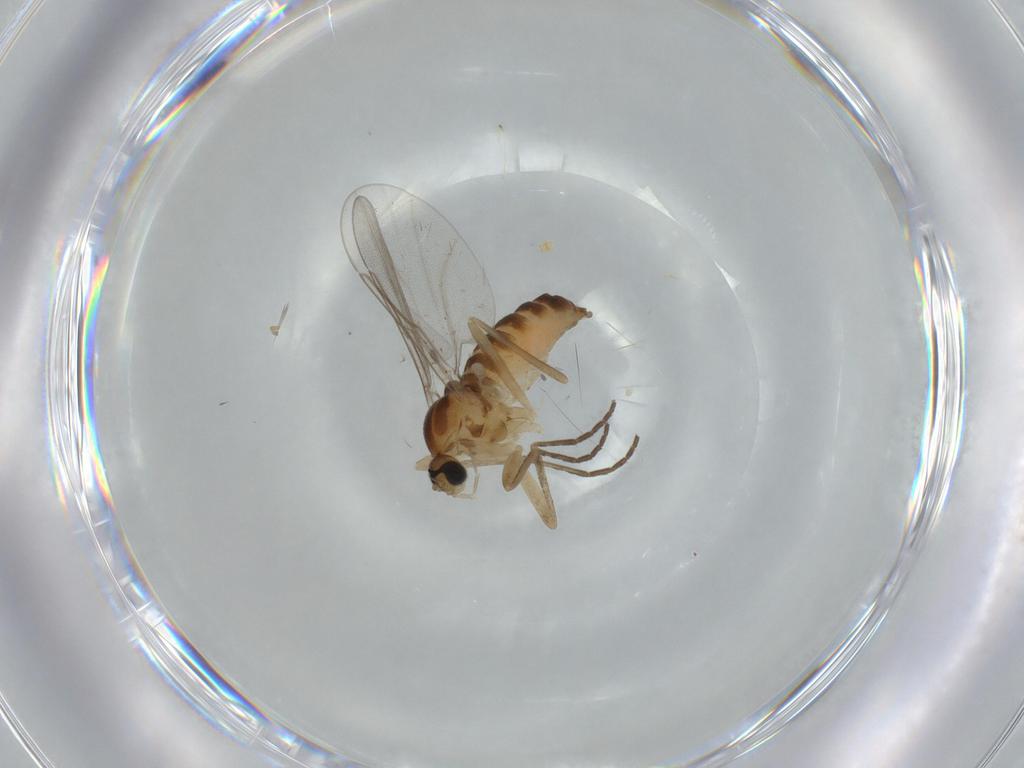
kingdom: Animalia
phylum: Arthropoda
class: Insecta
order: Diptera
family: Cecidomyiidae
